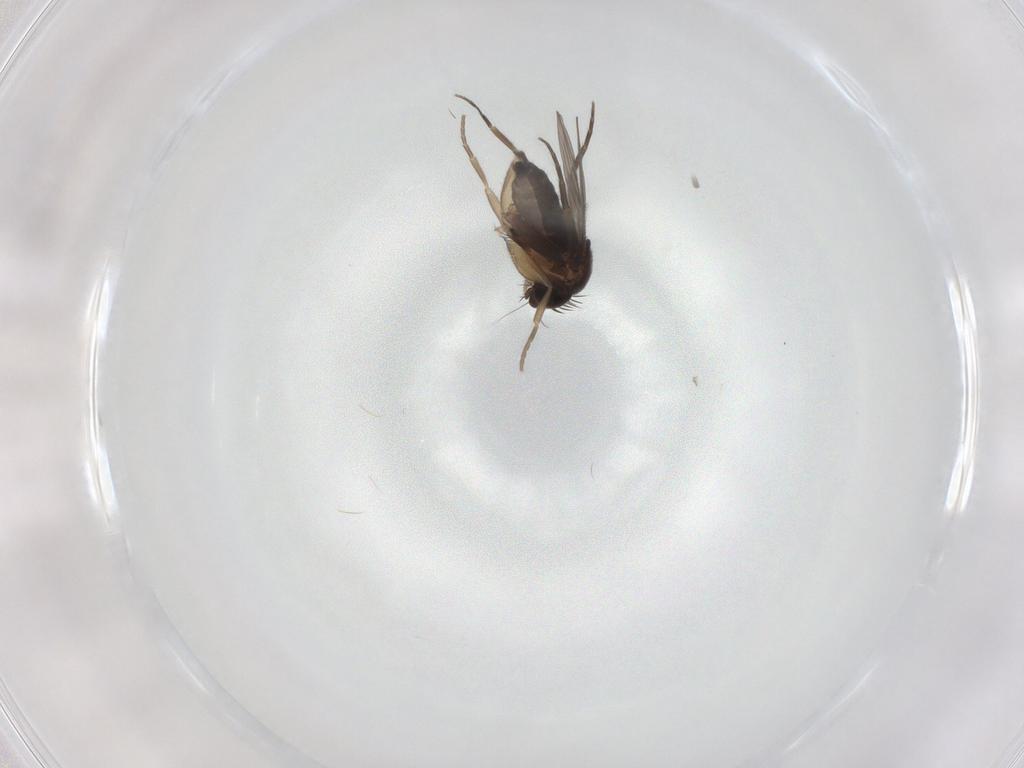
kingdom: Animalia
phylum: Arthropoda
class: Insecta
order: Diptera
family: Phoridae
